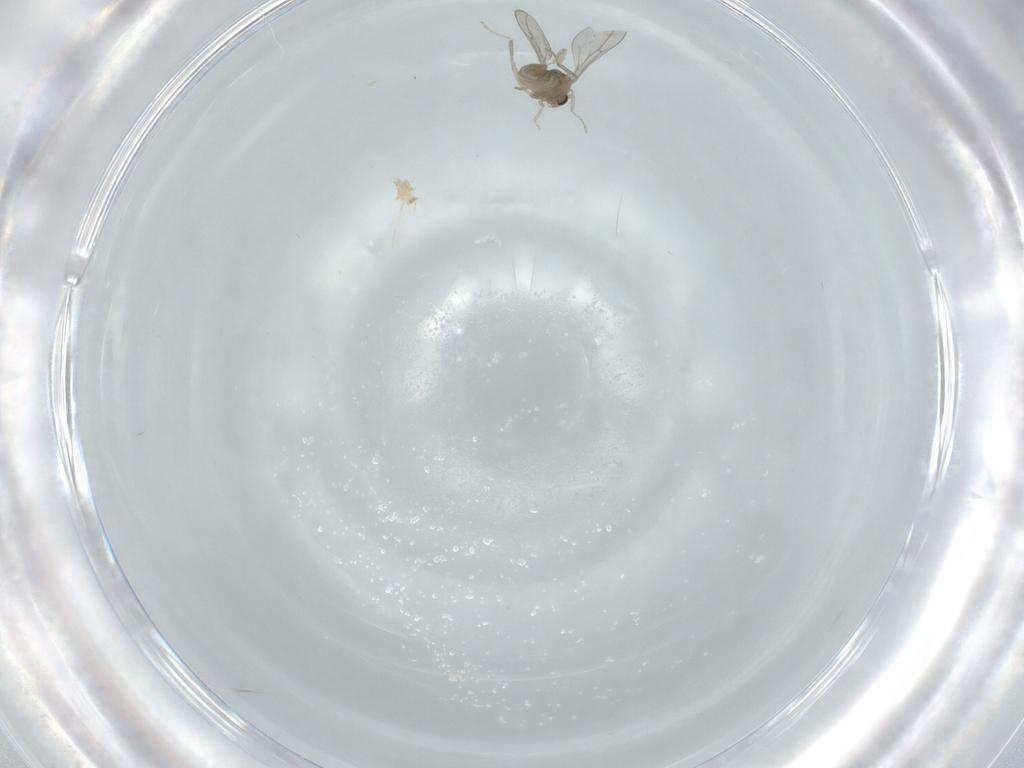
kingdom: Animalia
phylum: Arthropoda
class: Insecta
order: Diptera
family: Cecidomyiidae
